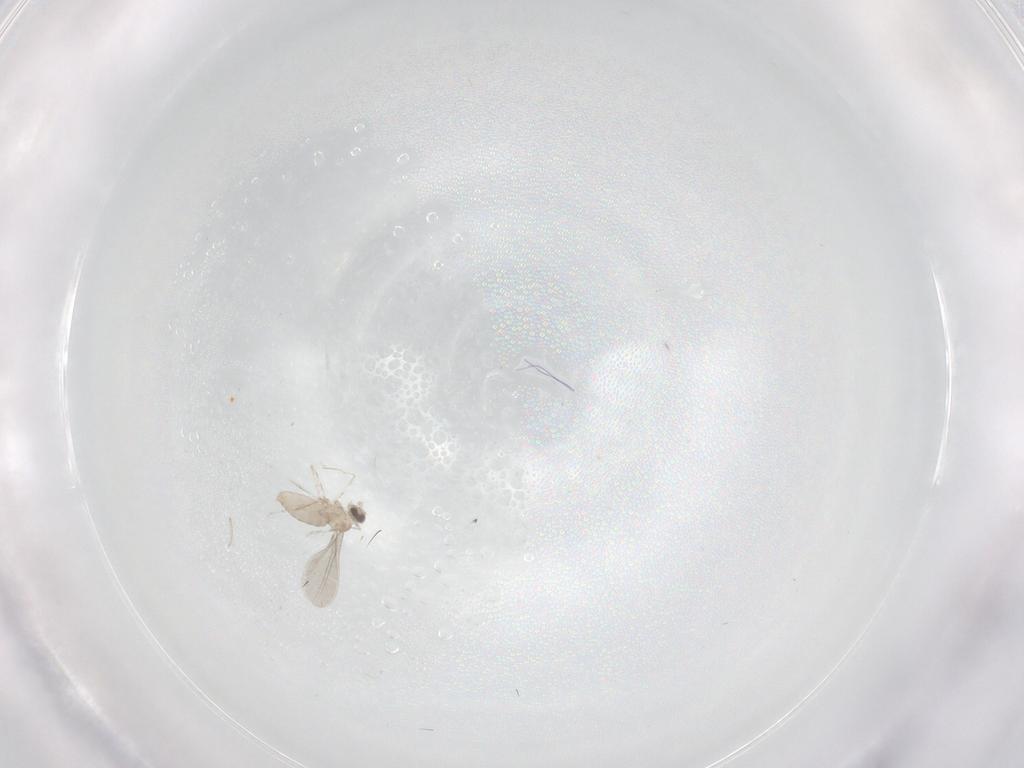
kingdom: Animalia
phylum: Arthropoda
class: Insecta
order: Diptera
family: Cecidomyiidae
